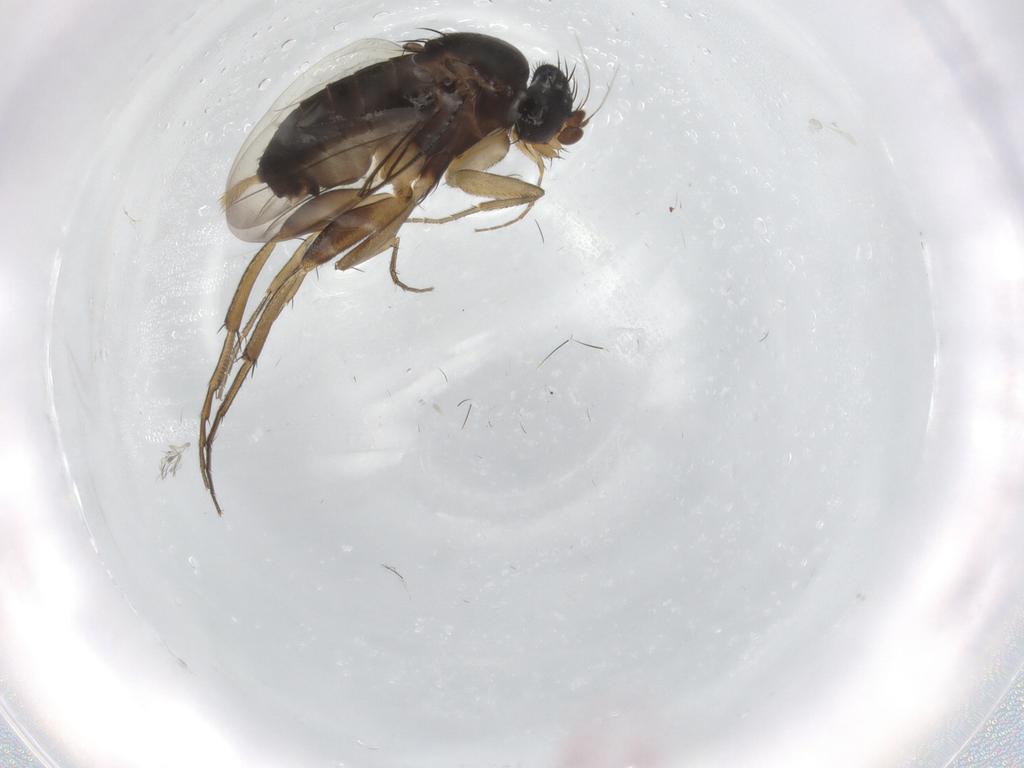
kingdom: Animalia
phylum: Arthropoda
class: Insecta
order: Diptera
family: Phoridae
